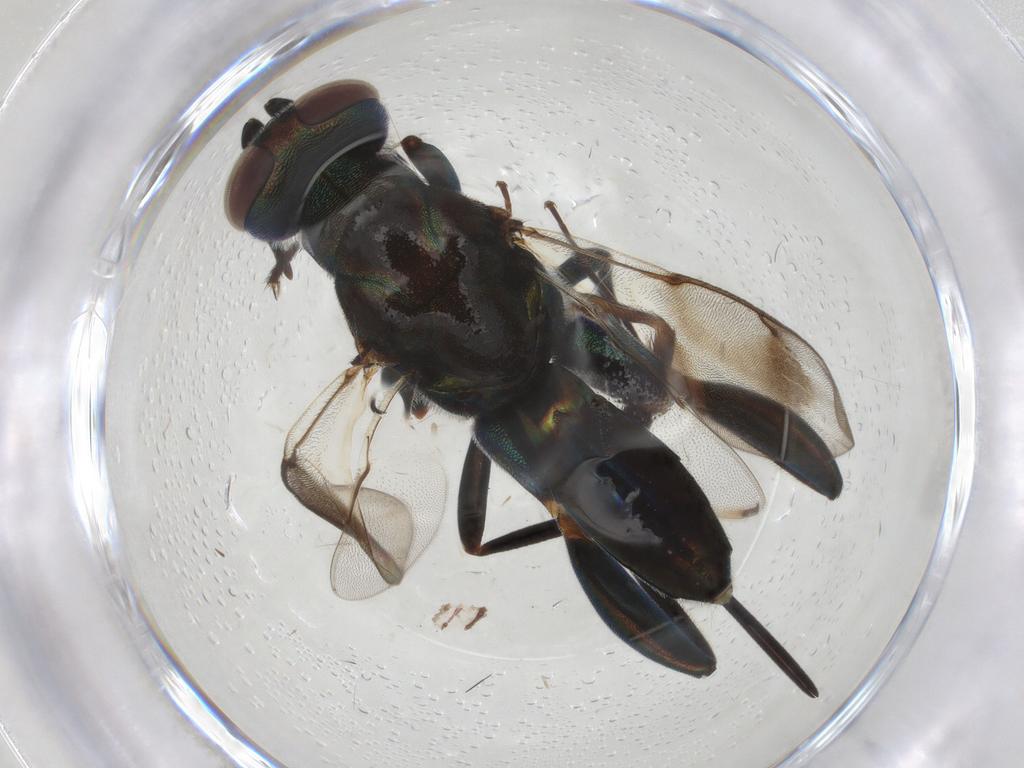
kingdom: Animalia
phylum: Arthropoda
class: Insecta
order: Diptera
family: Muscidae
